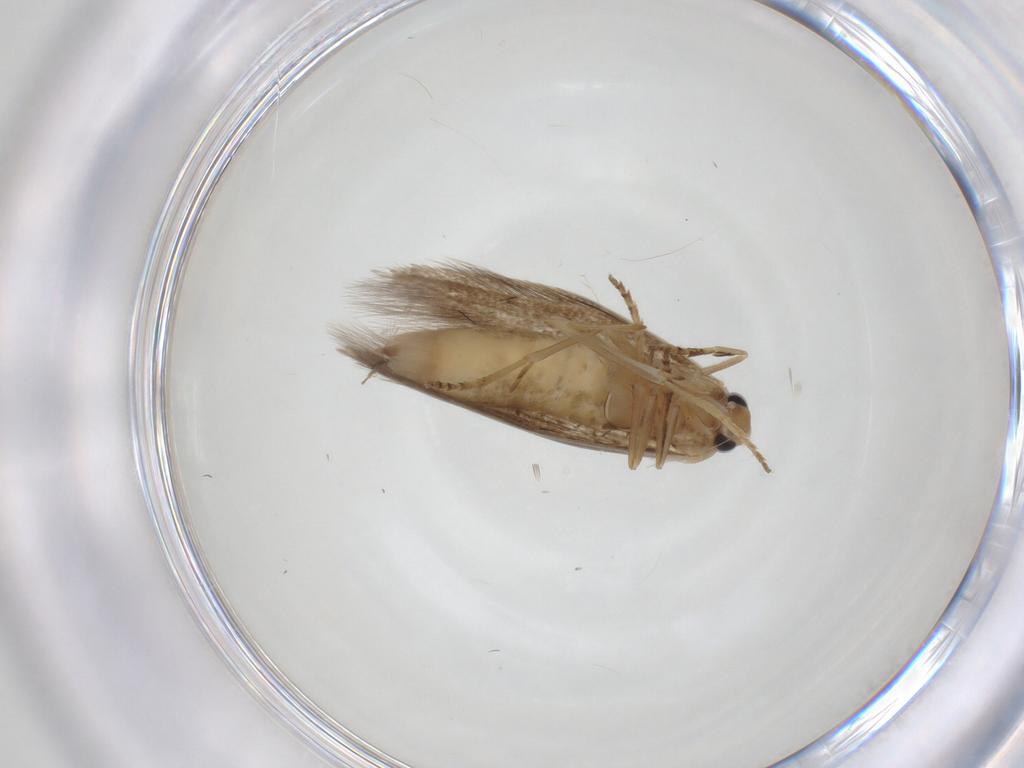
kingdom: Animalia
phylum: Arthropoda
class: Insecta
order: Lepidoptera
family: Bucculatricidae
